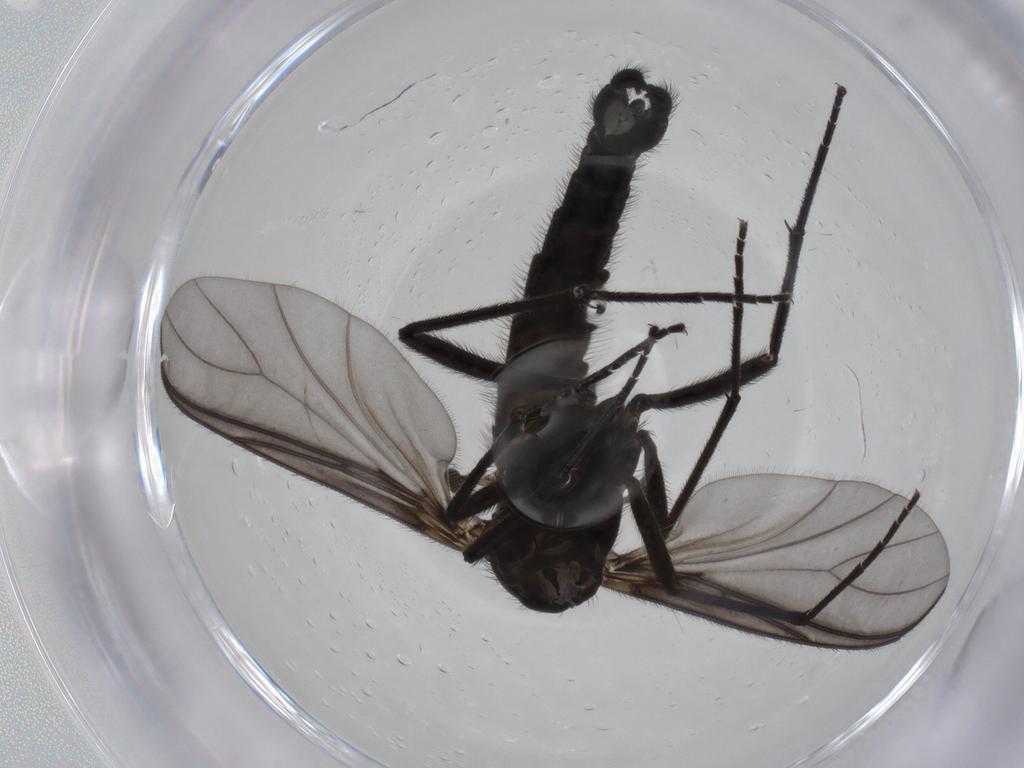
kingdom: Animalia
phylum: Arthropoda
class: Insecta
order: Diptera
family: Sciaridae
